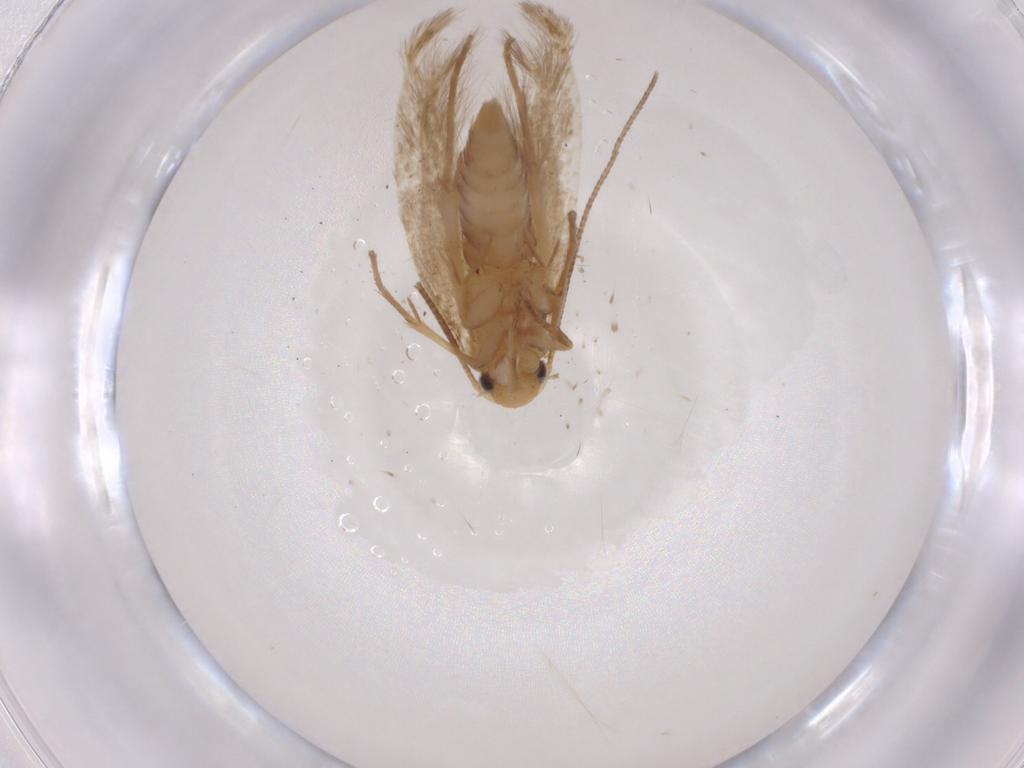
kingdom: Animalia
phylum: Arthropoda
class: Insecta
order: Lepidoptera
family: Tineidae
